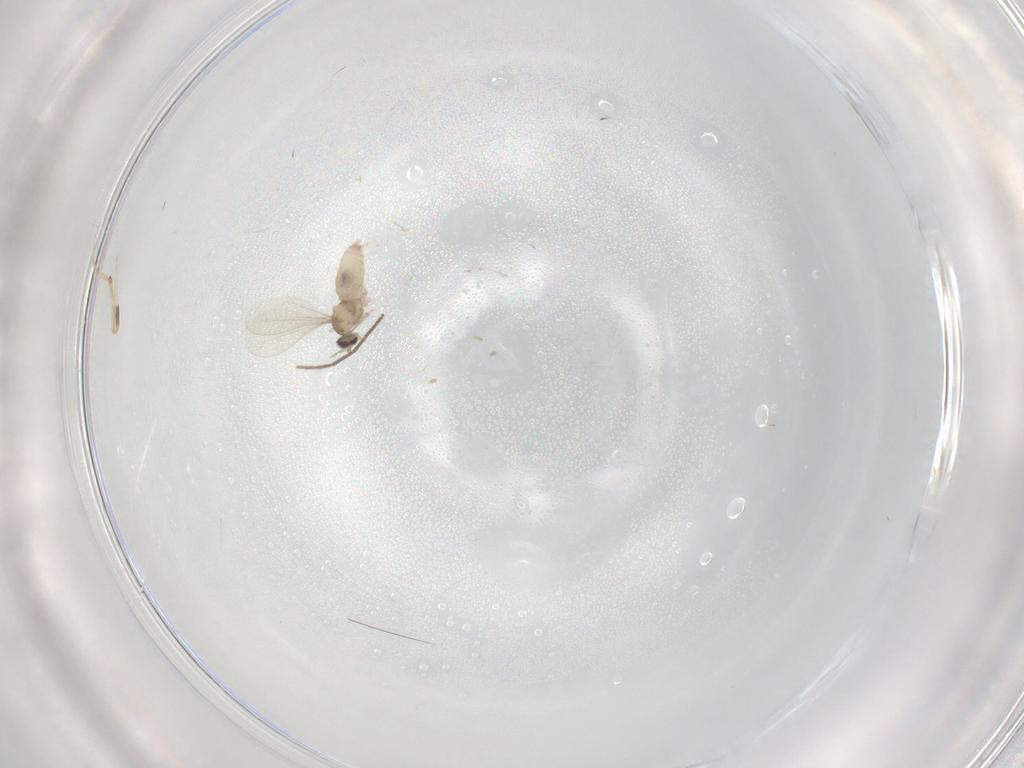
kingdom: Animalia
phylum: Arthropoda
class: Insecta
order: Diptera
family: Chironomidae
